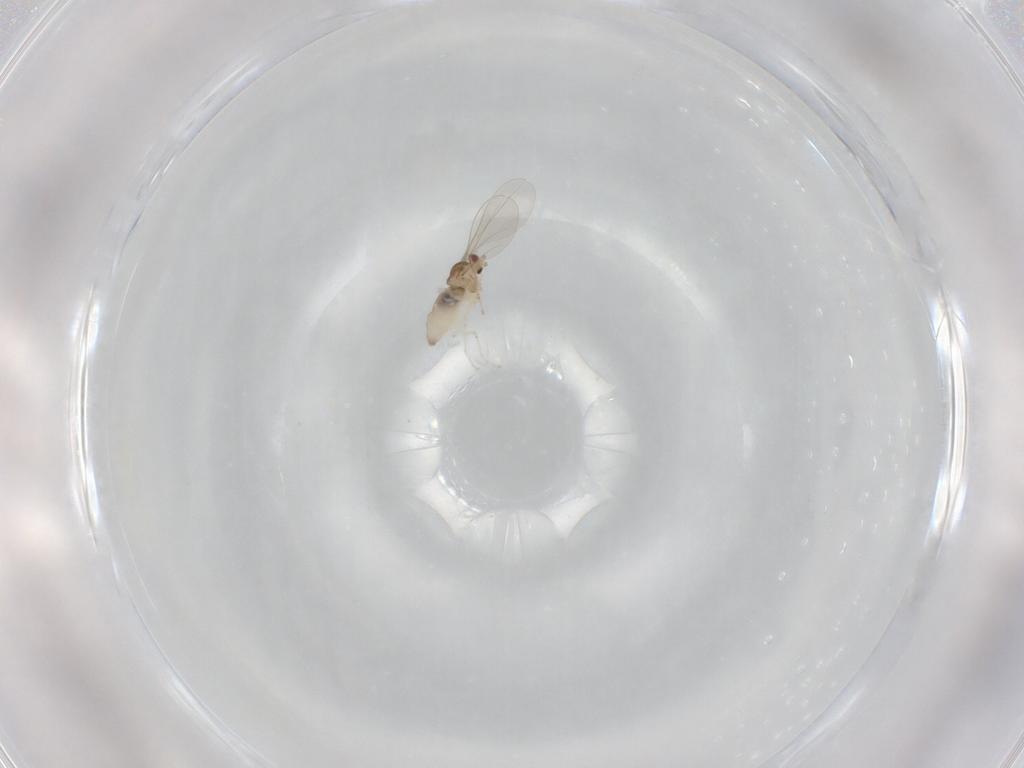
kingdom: Animalia
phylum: Arthropoda
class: Insecta
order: Diptera
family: Cecidomyiidae
